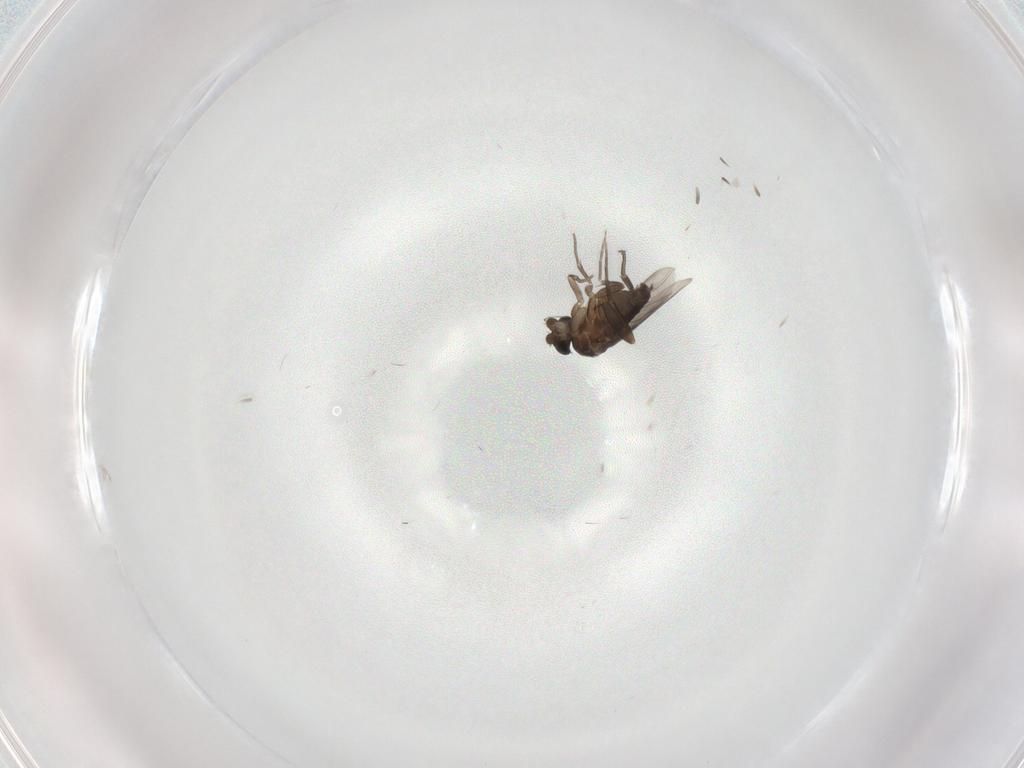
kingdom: Animalia
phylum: Arthropoda
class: Insecta
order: Diptera
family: Phoridae
